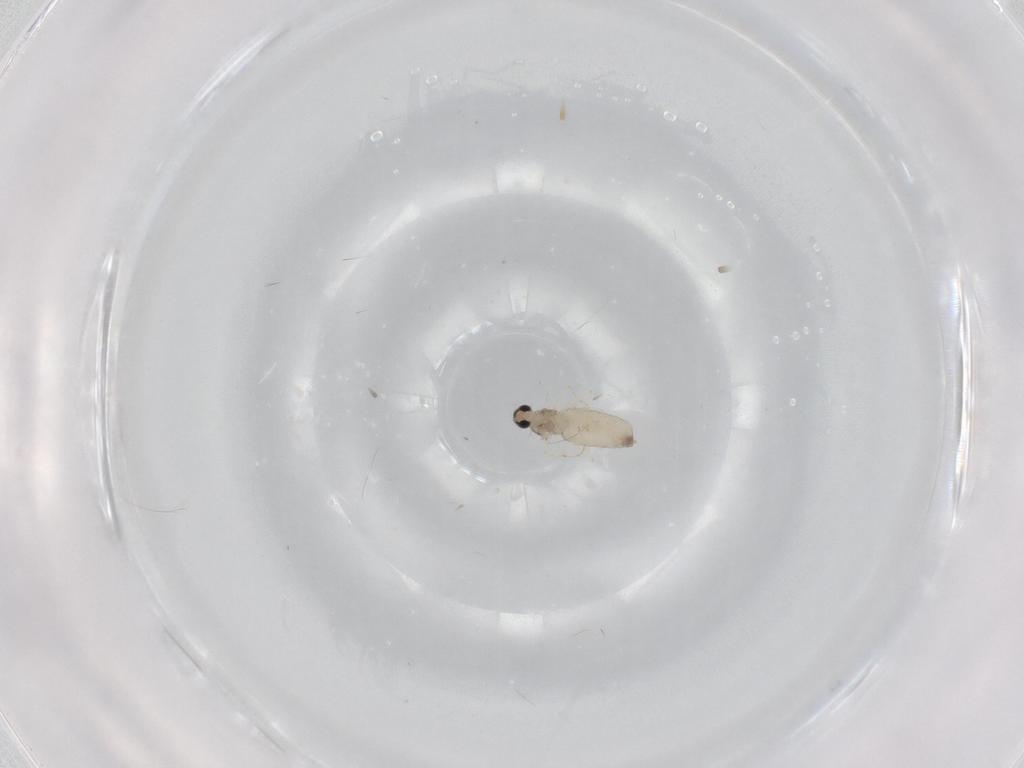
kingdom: Animalia
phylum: Arthropoda
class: Insecta
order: Diptera
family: Cecidomyiidae
